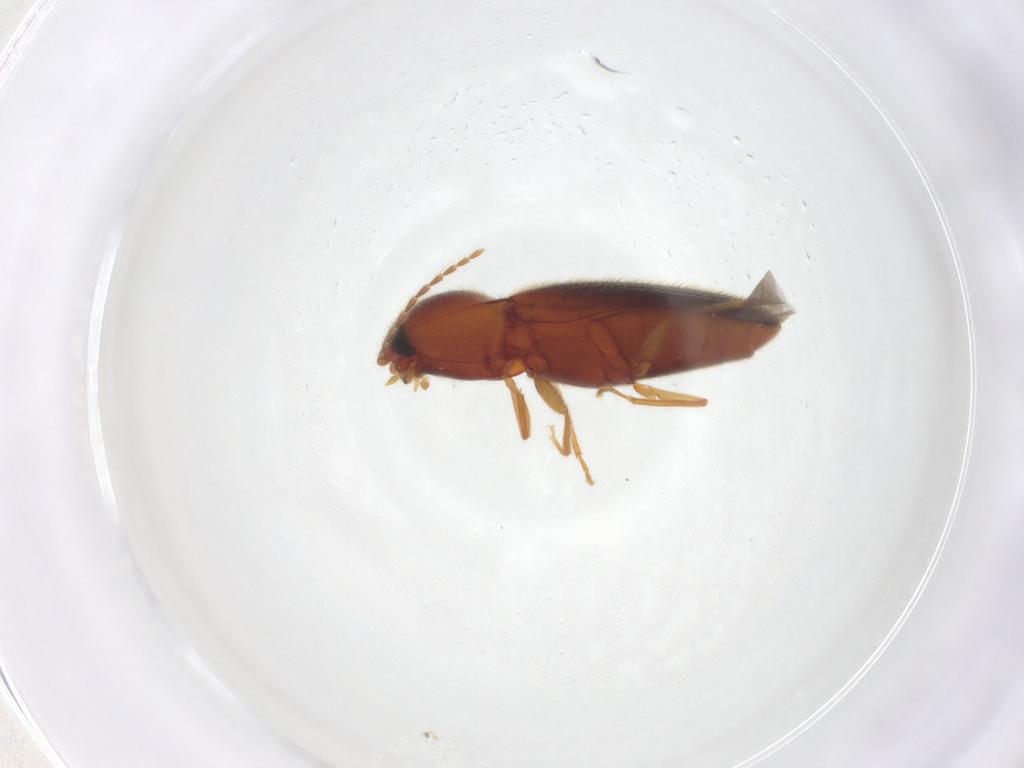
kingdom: Animalia
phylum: Arthropoda
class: Insecta
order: Coleoptera
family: Elateridae
